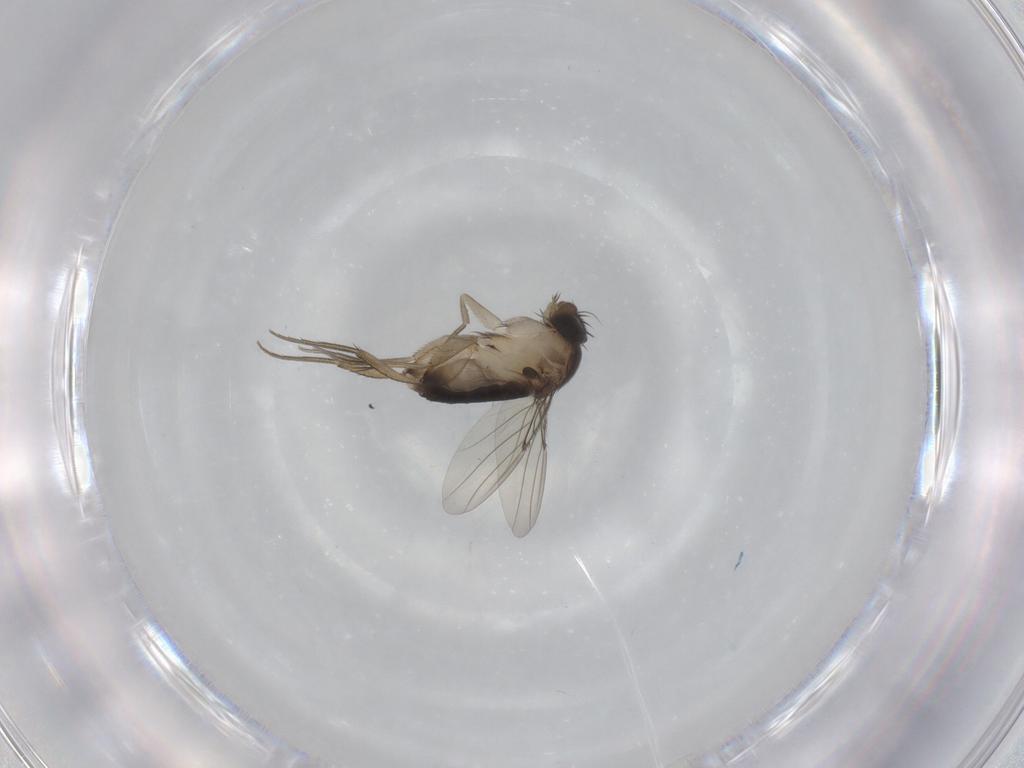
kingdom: Animalia
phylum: Arthropoda
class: Insecta
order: Diptera
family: Phoridae
